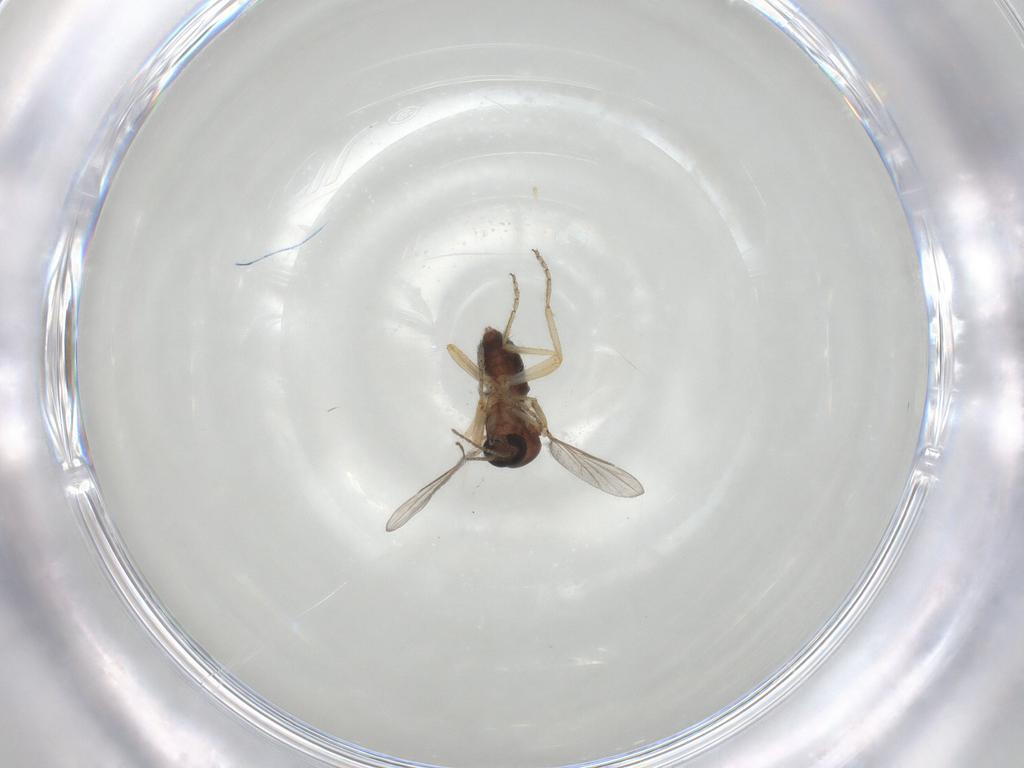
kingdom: Animalia
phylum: Arthropoda
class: Insecta
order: Diptera
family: Ceratopogonidae
